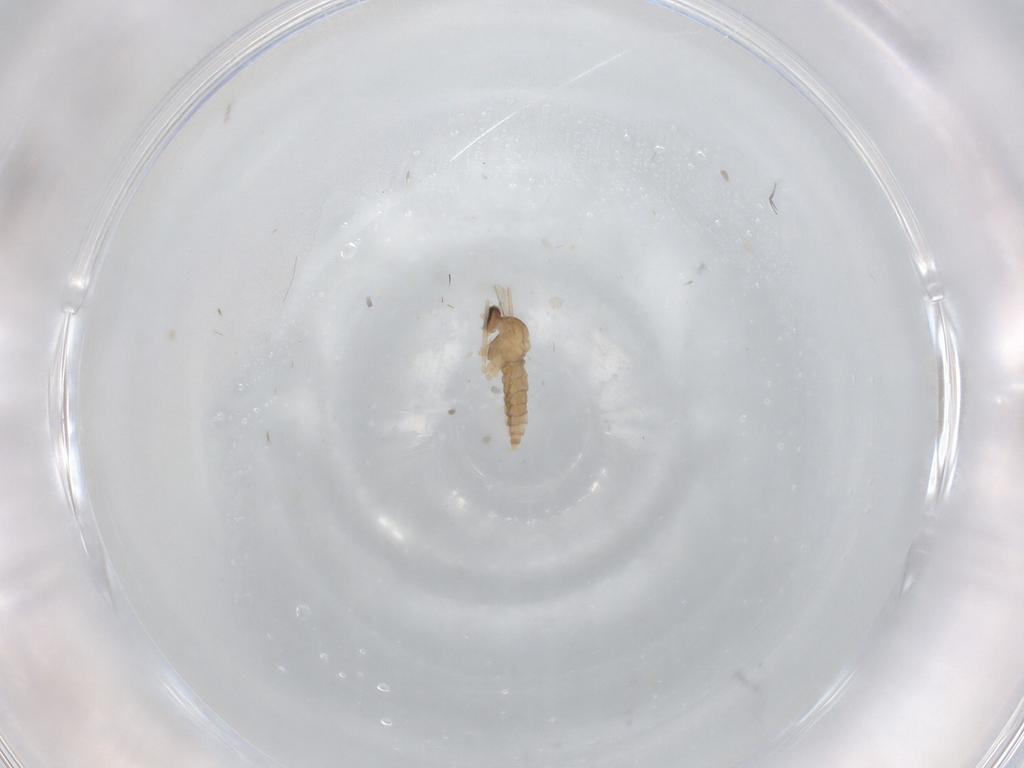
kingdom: Animalia
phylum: Arthropoda
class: Insecta
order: Diptera
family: Cecidomyiidae
